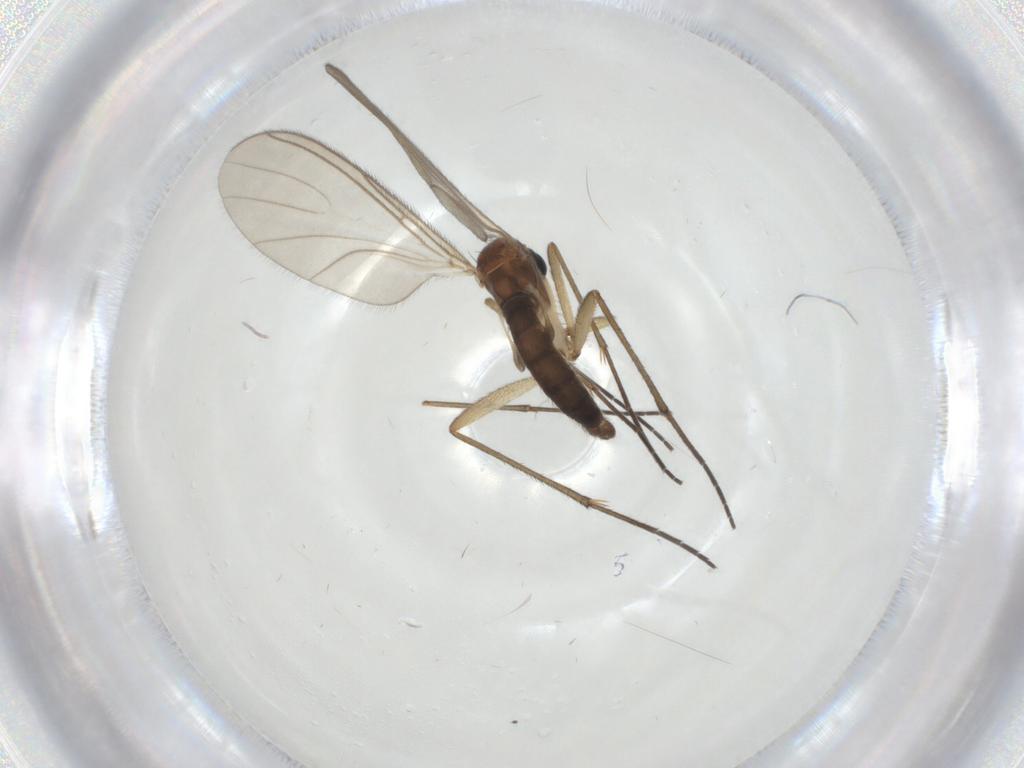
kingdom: Animalia
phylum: Arthropoda
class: Insecta
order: Diptera
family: Sciaridae
